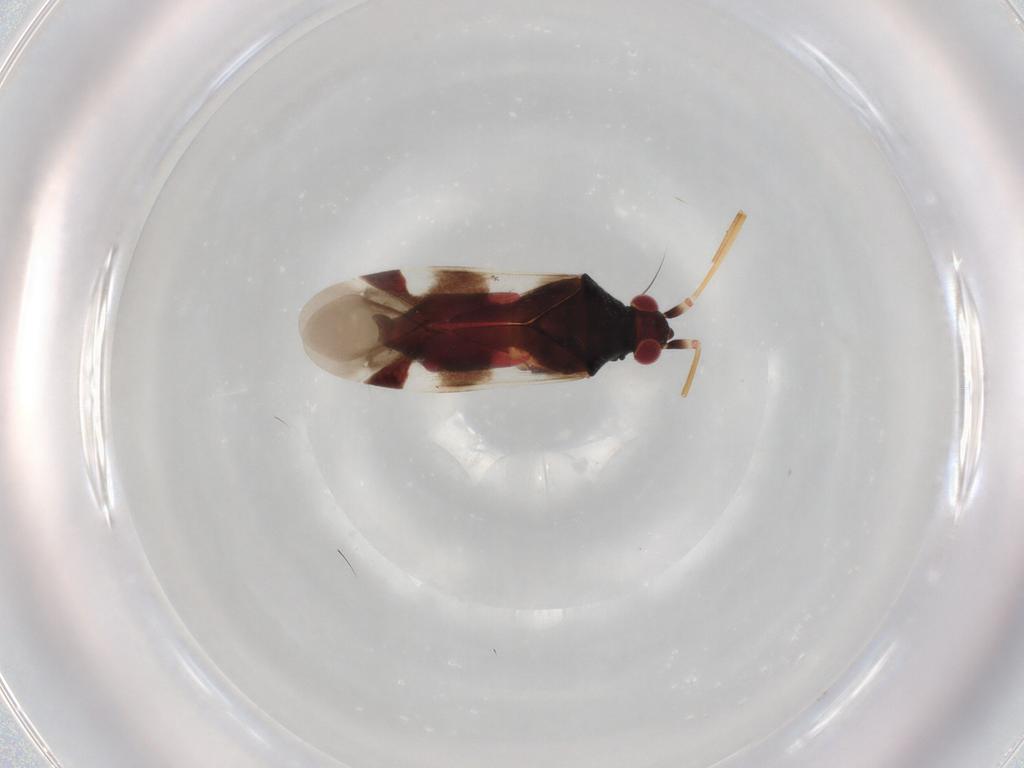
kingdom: Animalia
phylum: Arthropoda
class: Insecta
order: Hemiptera
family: Miridae
